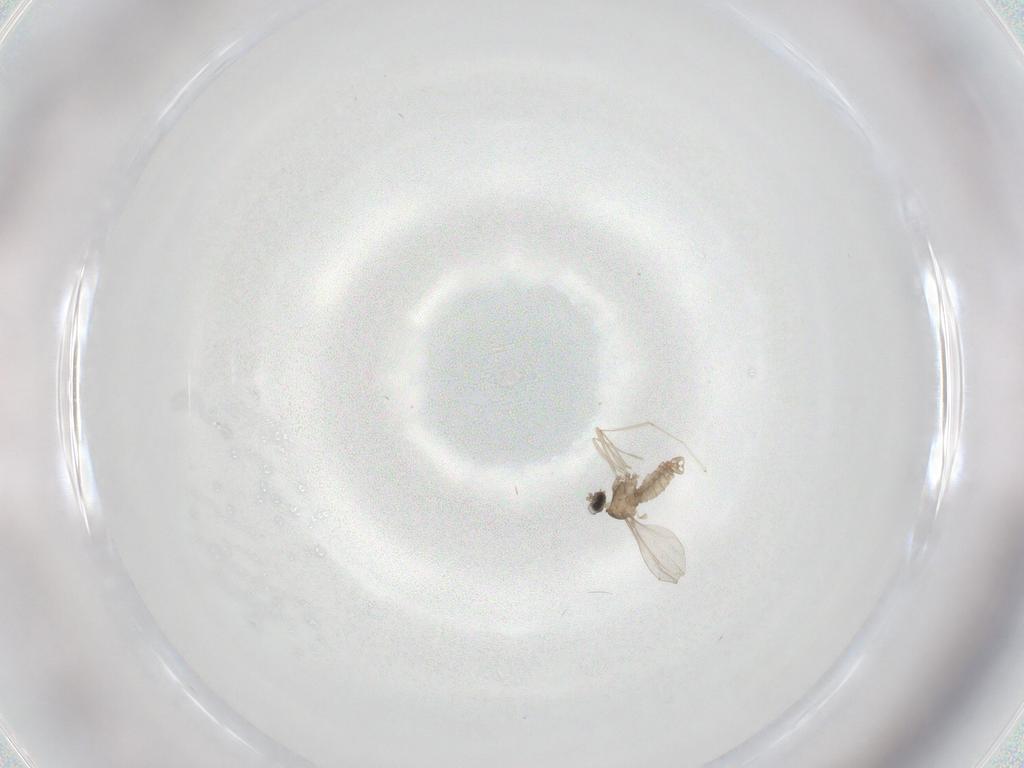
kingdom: Animalia
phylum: Arthropoda
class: Insecta
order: Diptera
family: Cecidomyiidae
